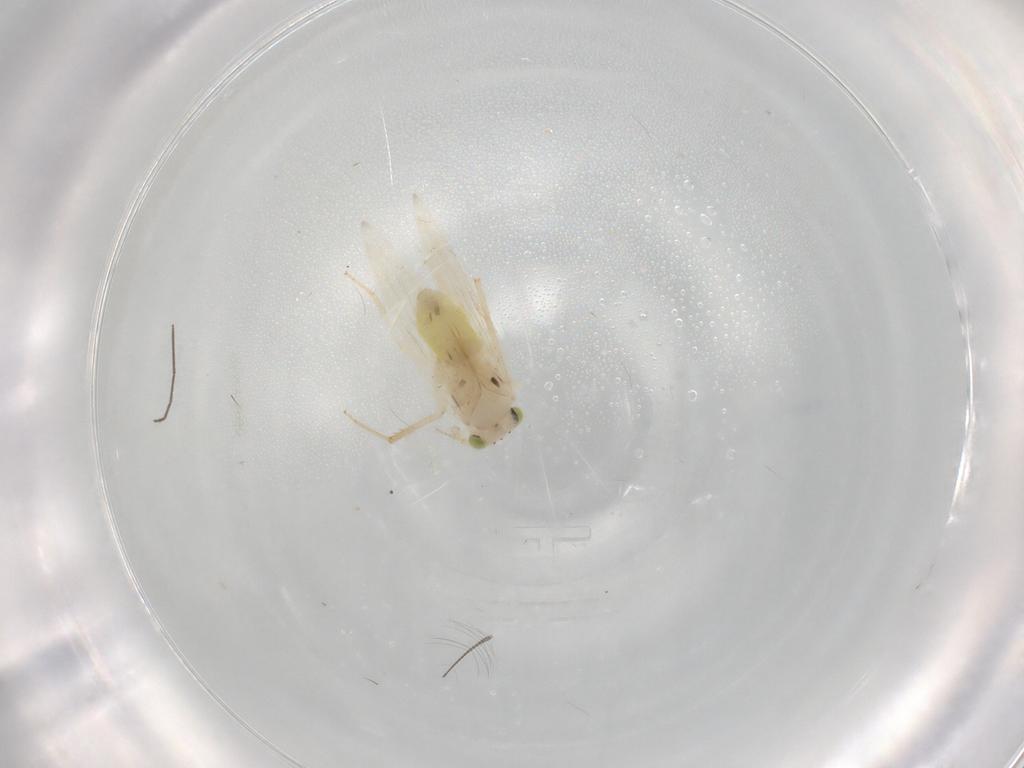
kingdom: Animalia
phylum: Arthropoda
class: Insecta
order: Psocodea
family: Lepidopsocidae
